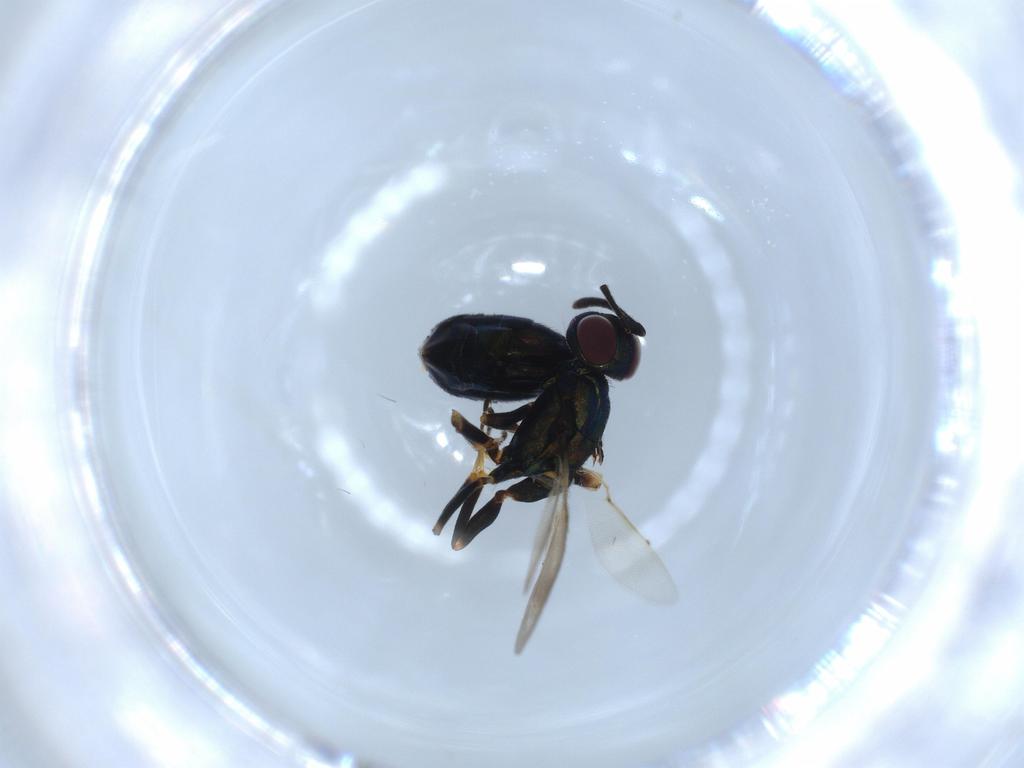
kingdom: Animalia
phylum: Arthropoda
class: Insecta
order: Hymenoptera
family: Eupelmidae
